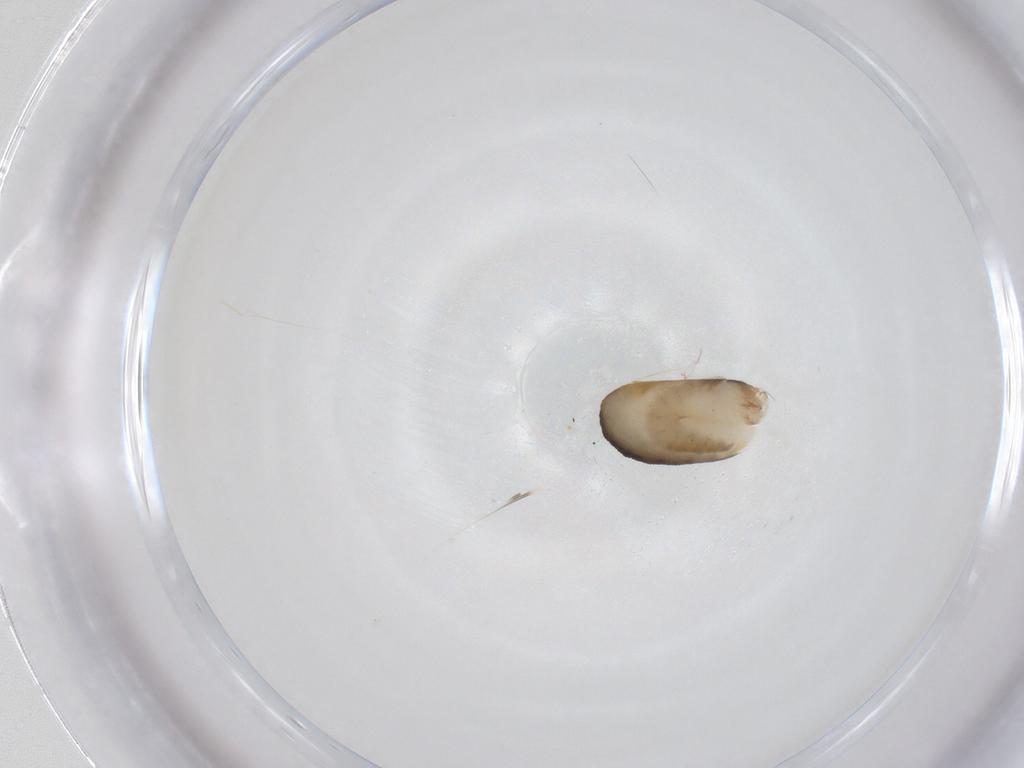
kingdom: Animalia
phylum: Arthropoda
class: Insecta
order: Hymenoptera
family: Dryinidae
